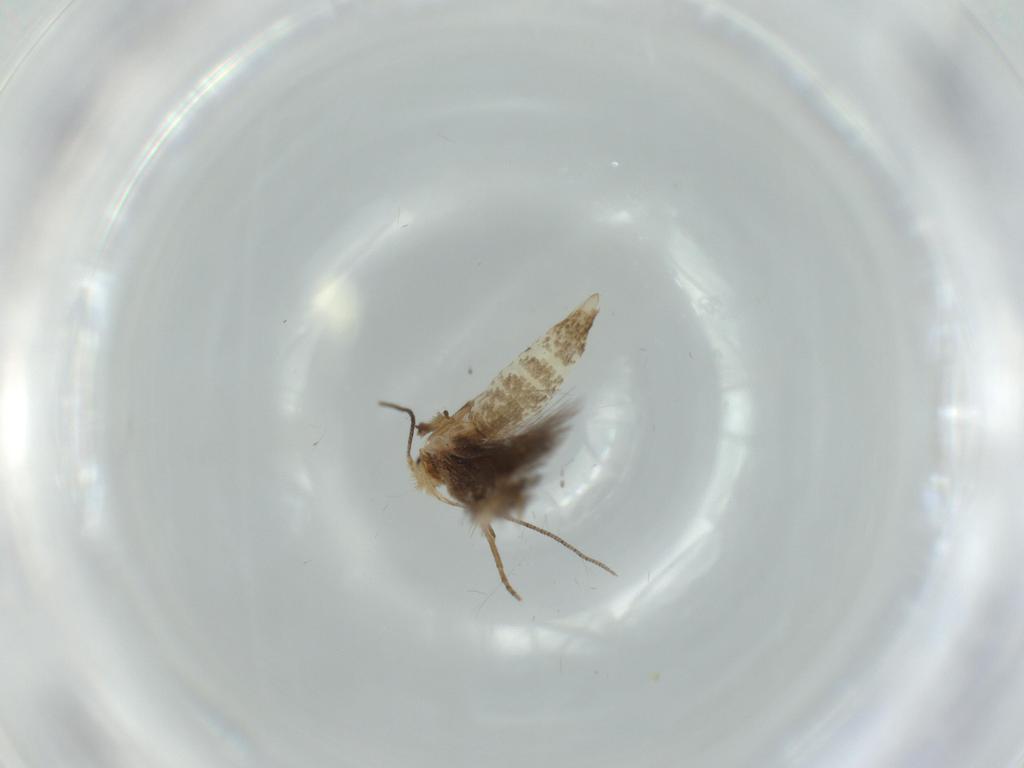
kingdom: Animalia
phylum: Arthropoda
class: Insecta
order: Lepidoptera
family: Bucculatricidae
